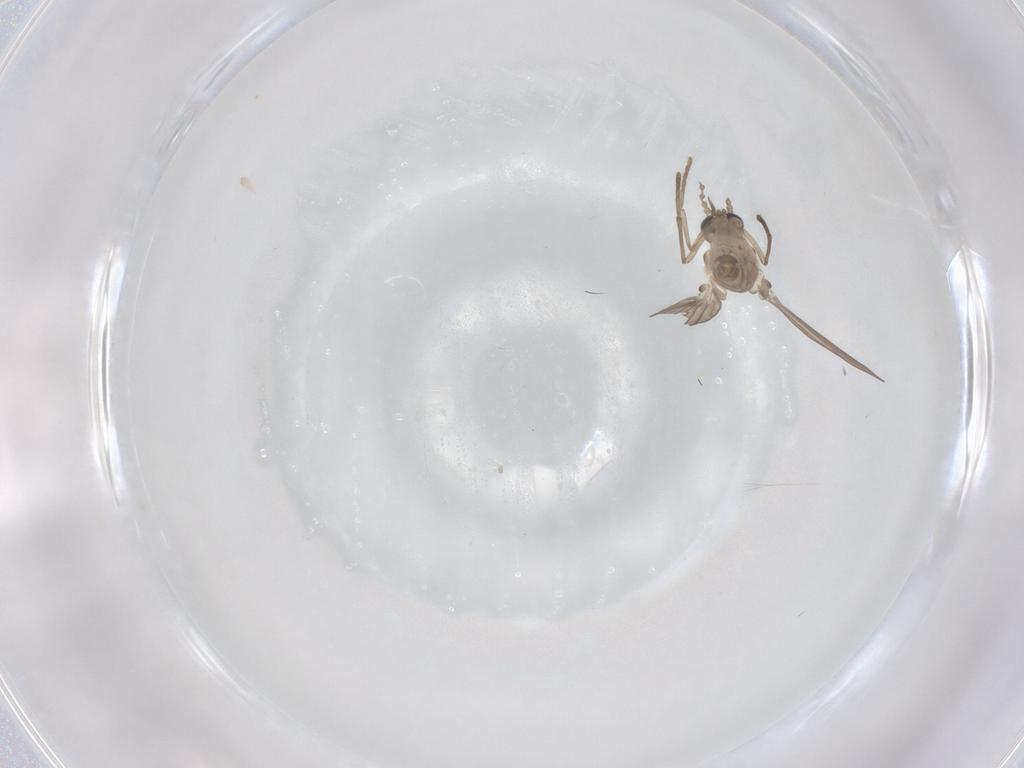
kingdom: Animalia
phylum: Arthropoda
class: Insecta
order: Diptera
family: Psychodidae
